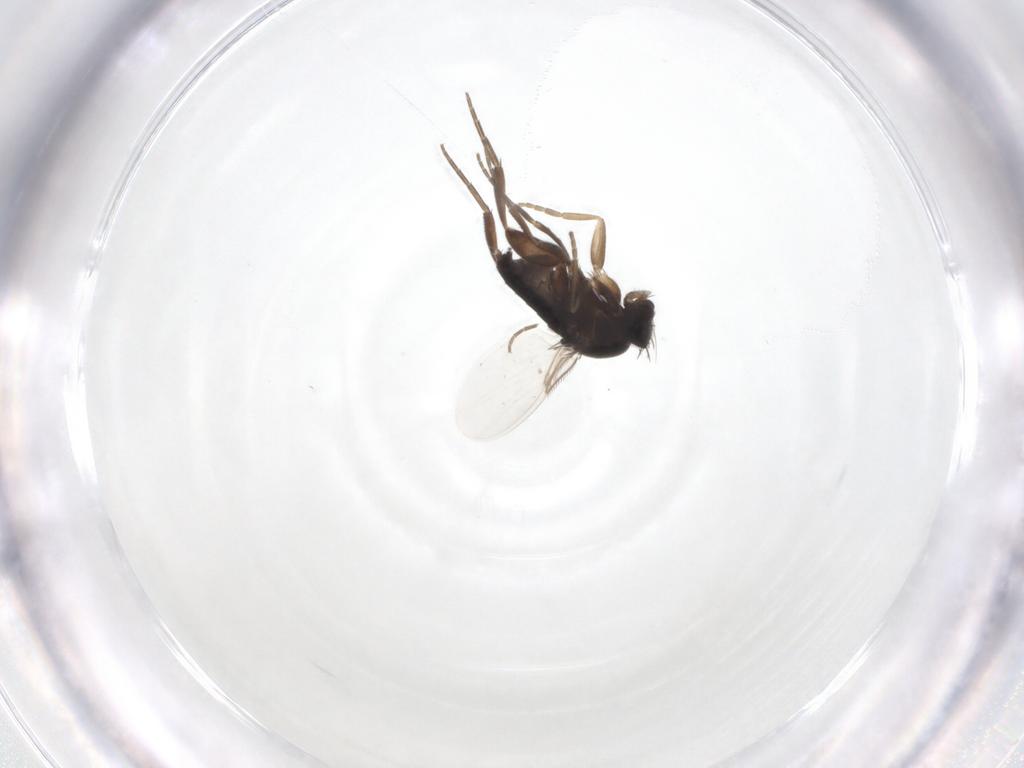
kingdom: Animalia
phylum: Arthropoda
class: Insecta
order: Diptera
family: Phoridae
